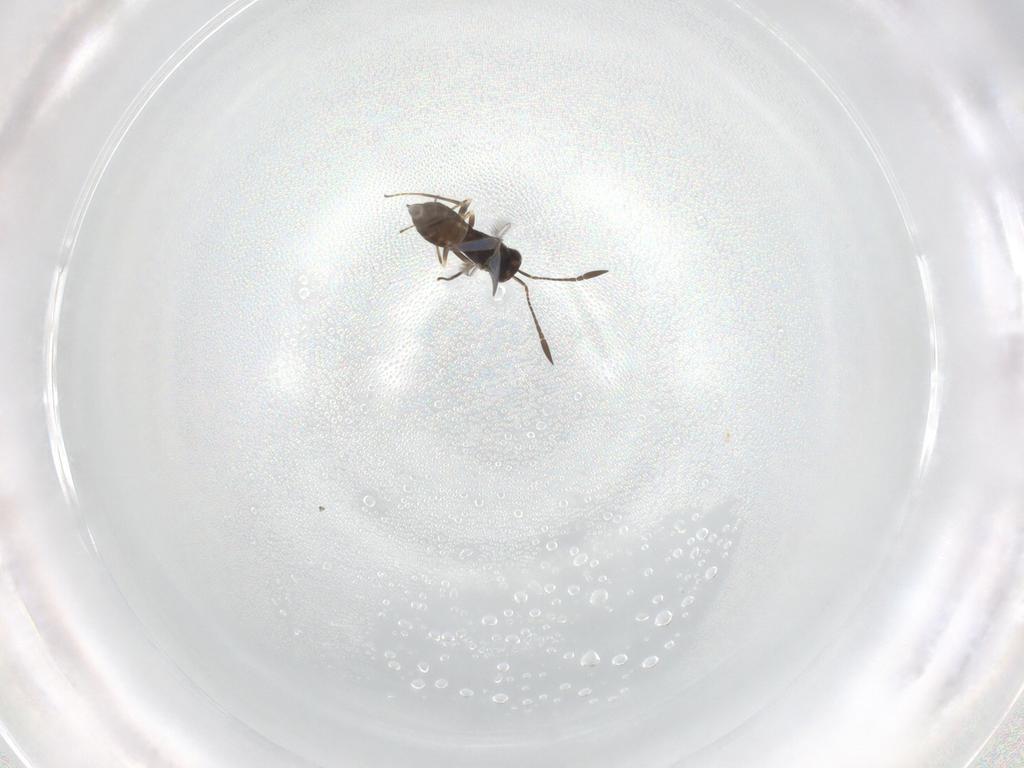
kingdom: Animalia
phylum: Arthropoda
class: Insecta
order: Hymenoptera
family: Mymaridae
